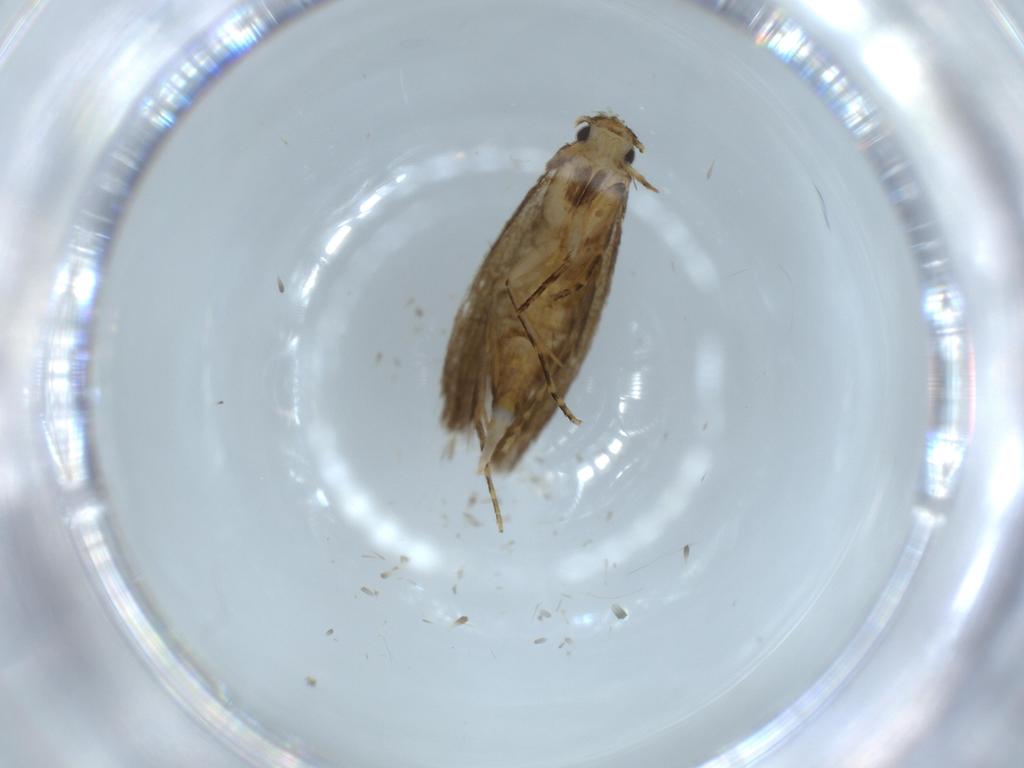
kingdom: Animalia
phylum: Arthropoda
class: Insecta
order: Lepidoptera
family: Tineidae
